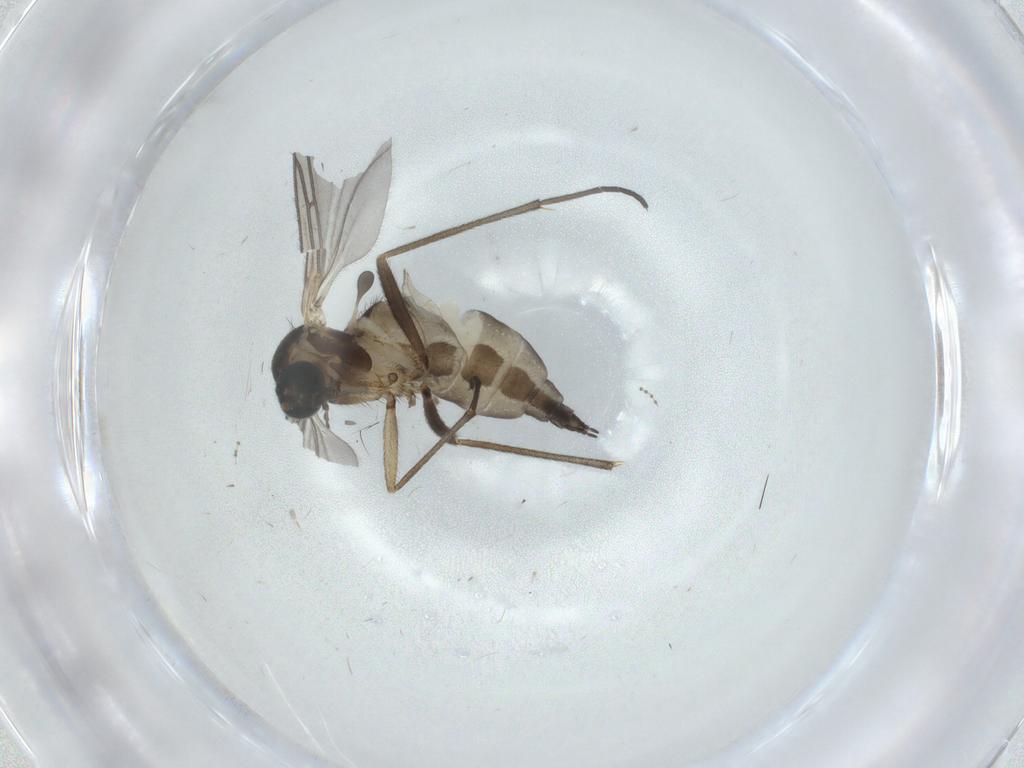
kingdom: Animalia
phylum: Arthropoda
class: Insecta
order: Diptera
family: Sciaridae
